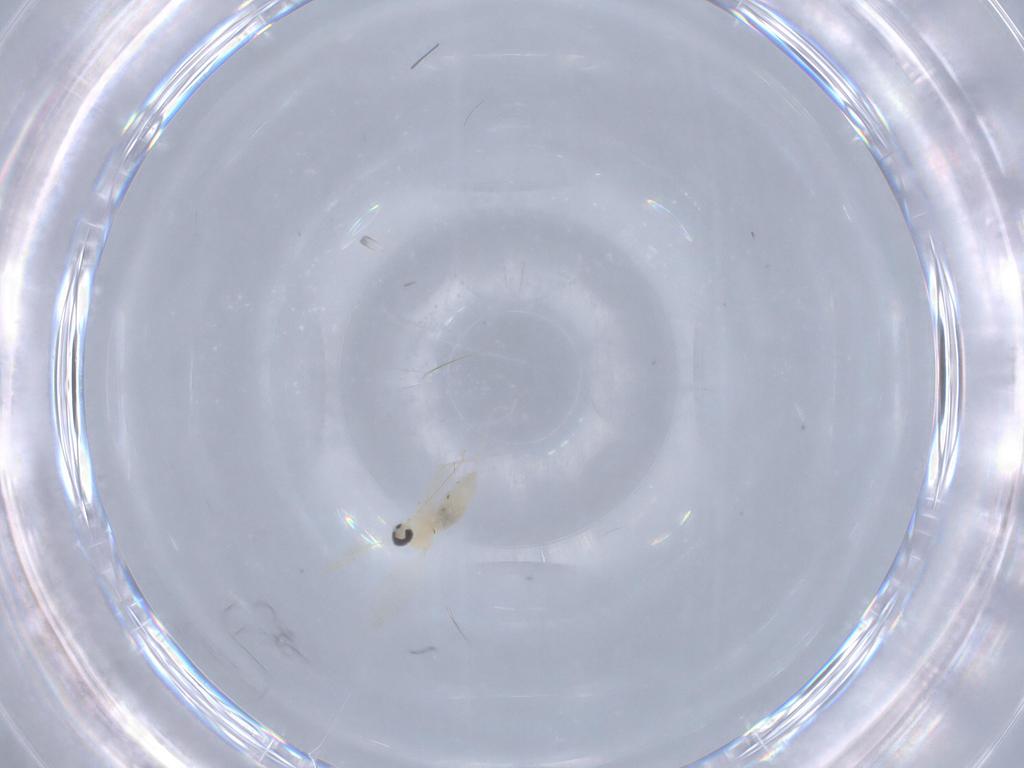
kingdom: Animalia
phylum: Arthropoda
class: Insecta
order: Diptera
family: Cecidomyiidae
